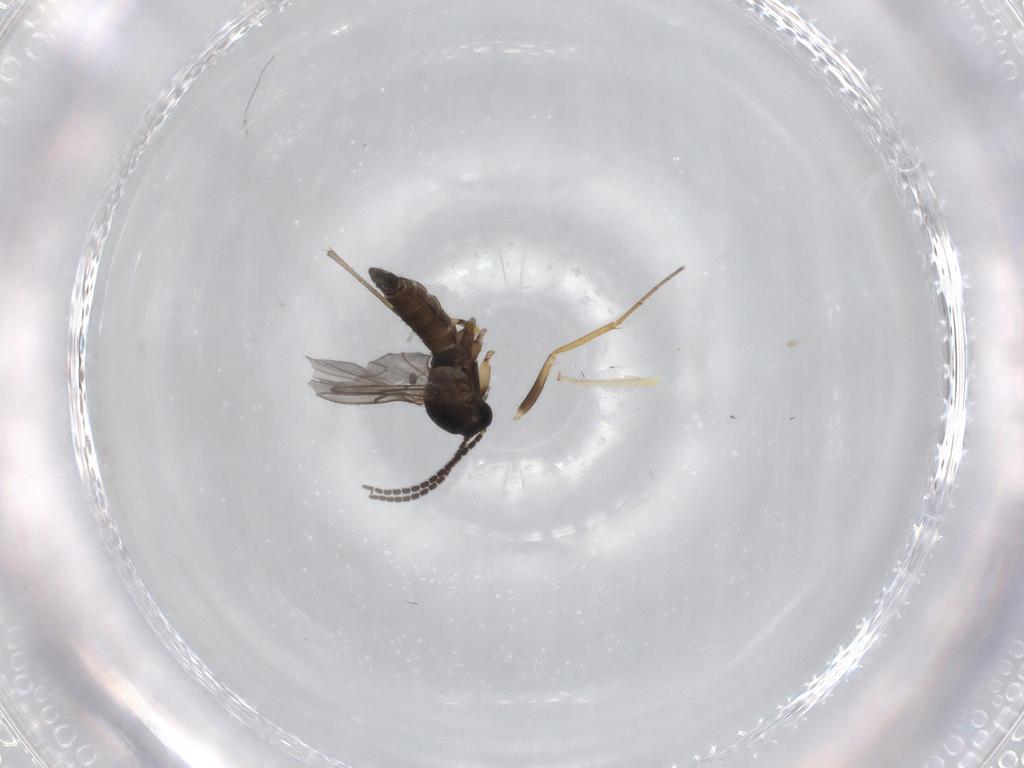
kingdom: Animalia
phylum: Arthropoda
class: Insecta
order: Diptera
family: Sciaridae
